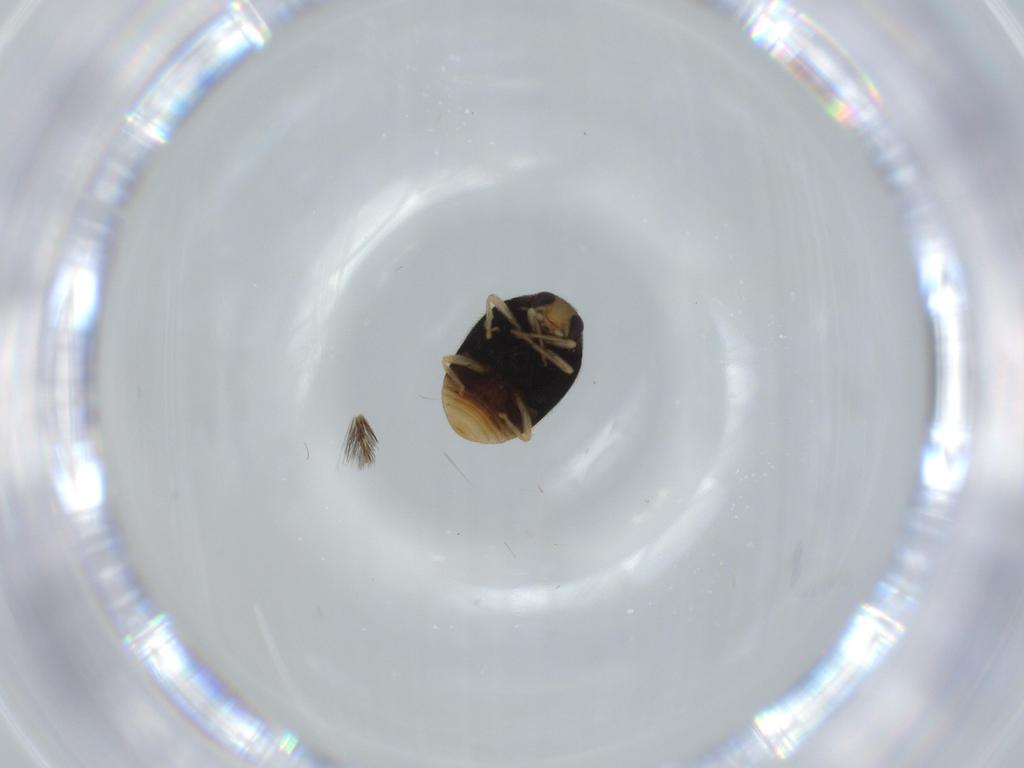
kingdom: Animalia
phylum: Arthropoda
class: Insecta
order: Coleoptera
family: Coccinellidae
